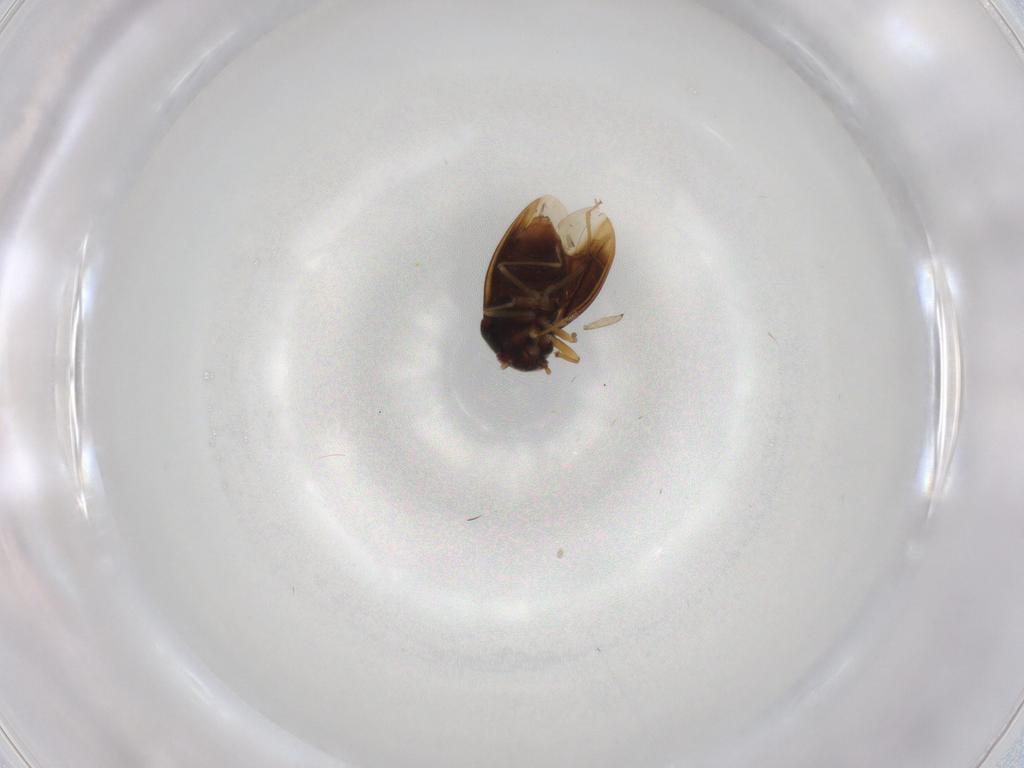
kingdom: Animalia
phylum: Arthropoda
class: Insecta
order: Hemiptera
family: Schizopteridae
